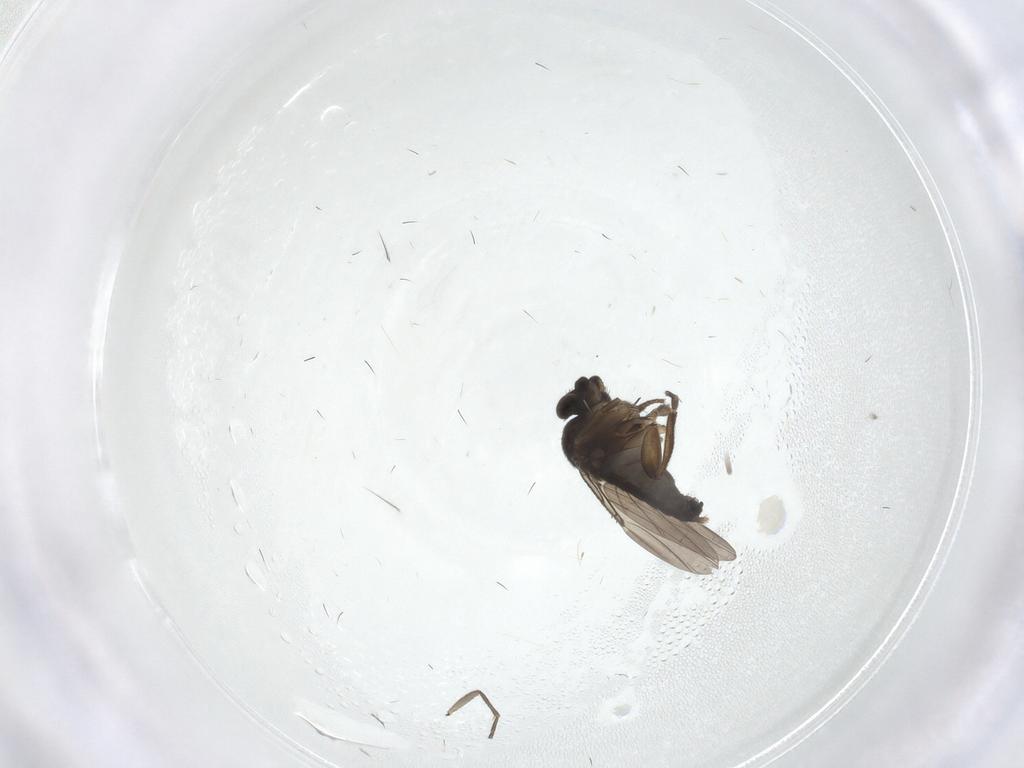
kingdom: Animalia
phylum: Arthropoda
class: Insecta
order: Diptera
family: Phoridae
